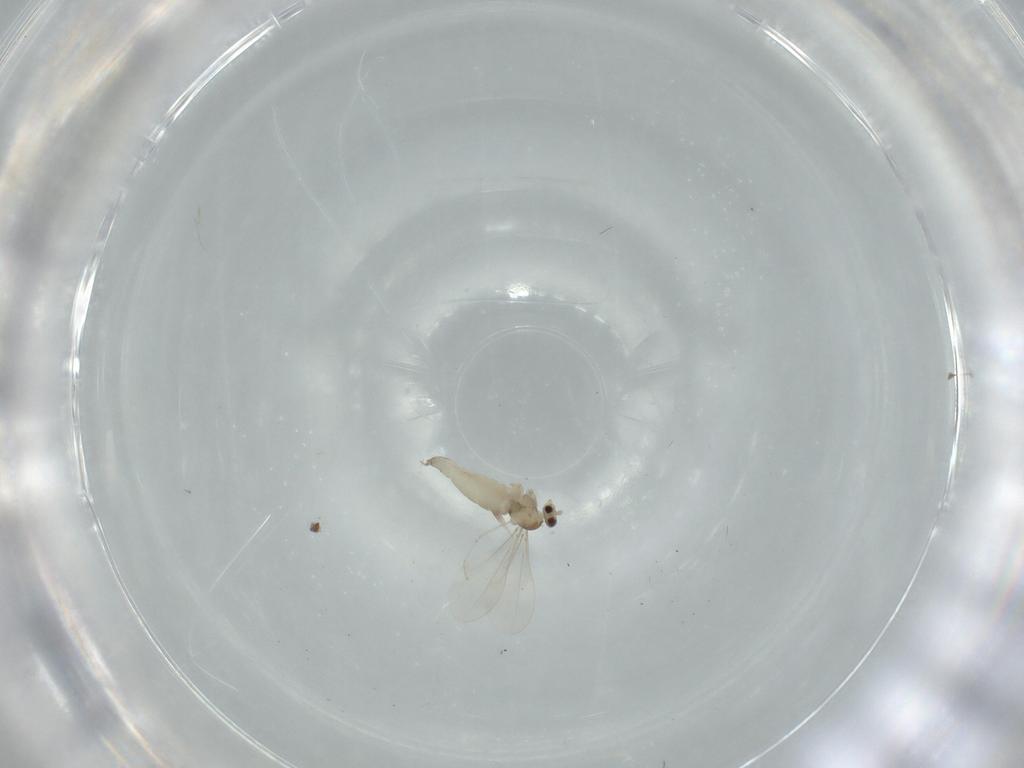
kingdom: Animalia
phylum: Arthropoda
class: Insecta
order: Diptera
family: Cecidomyiidae
